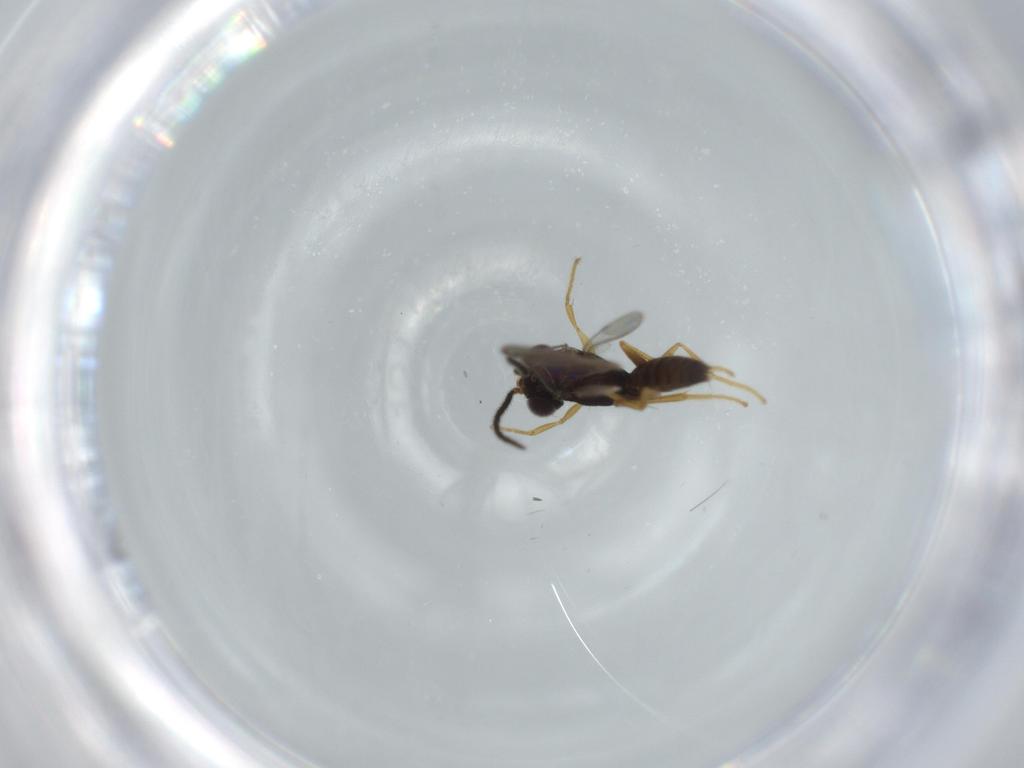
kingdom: Animalia
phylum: Arthropoda
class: Insecta
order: Hymenoptera
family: Dryinidae
